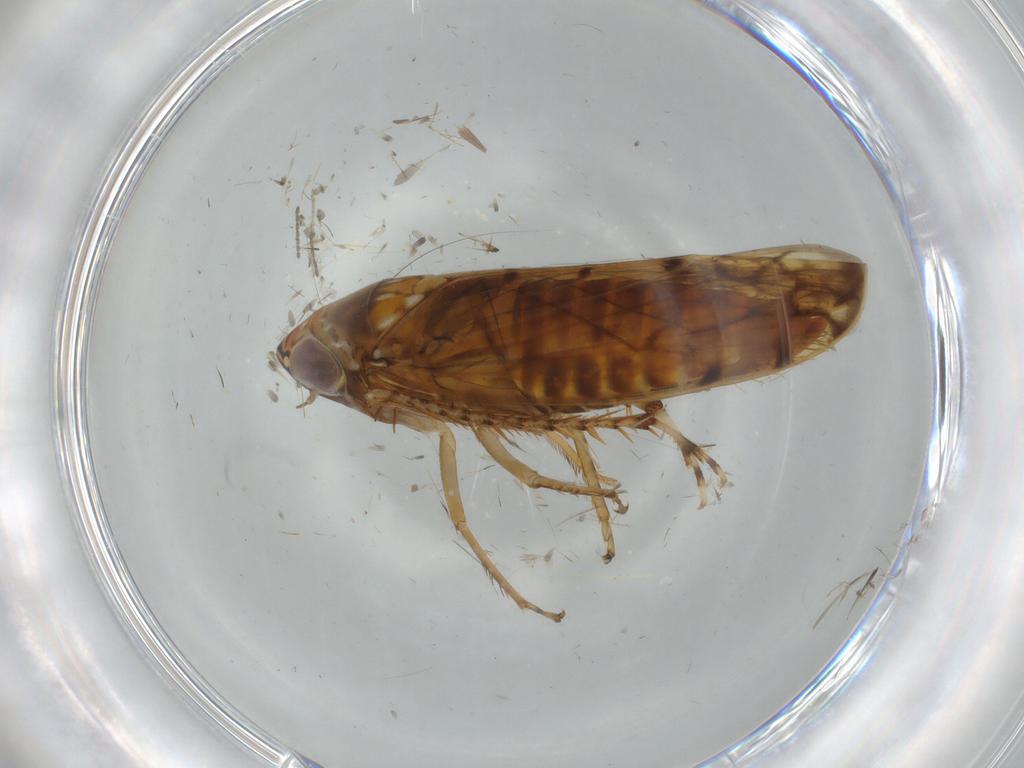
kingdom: Animalia
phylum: Arthropoda
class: Insecta
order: Hemiptera
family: Cicadellidae
